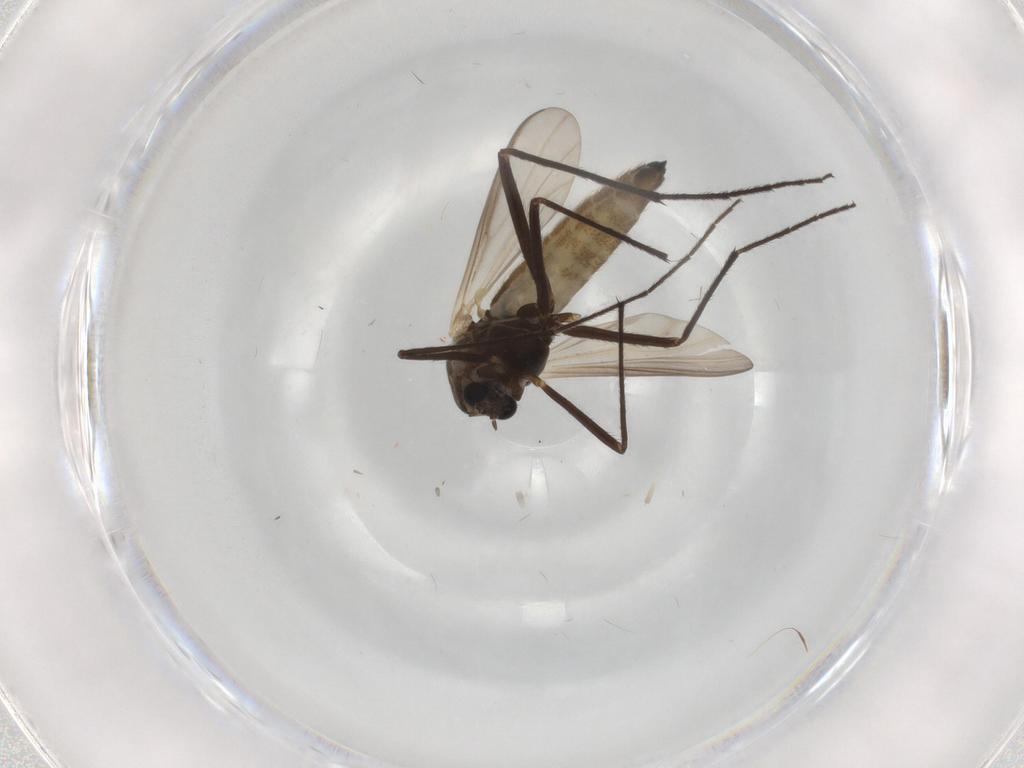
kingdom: Animalia
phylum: Arthropoda
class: Insecta
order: Diptera
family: Chironomidae
